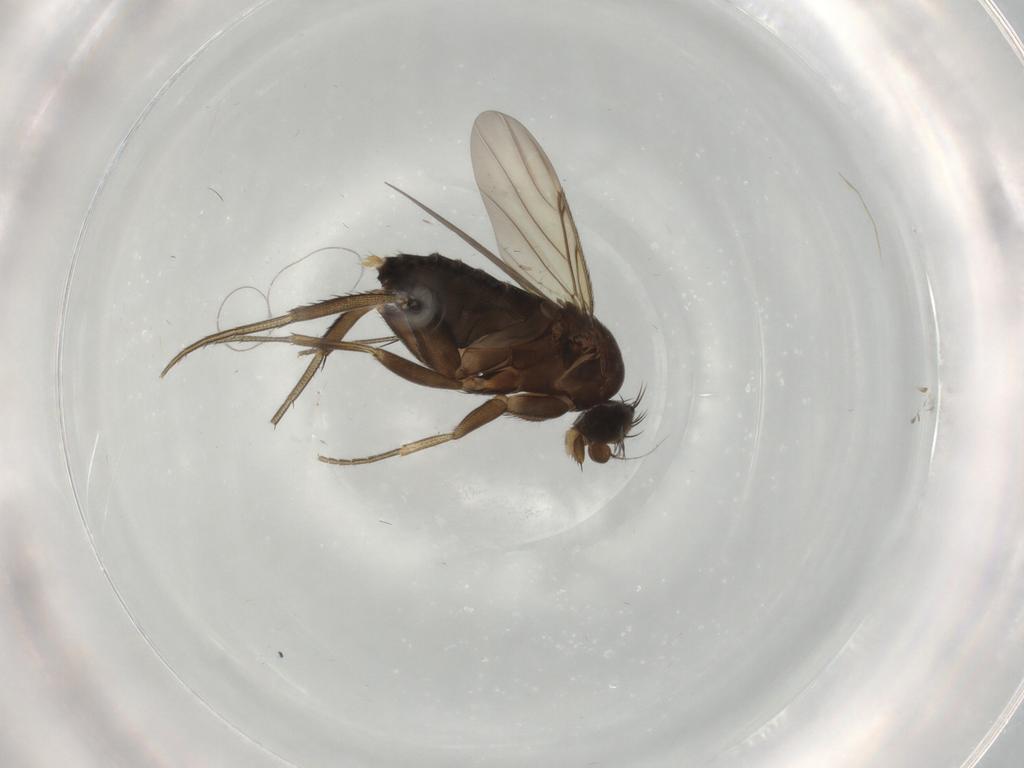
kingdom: Animalia
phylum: Arthropoda
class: Insecta
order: Diptera
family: Phoridae
